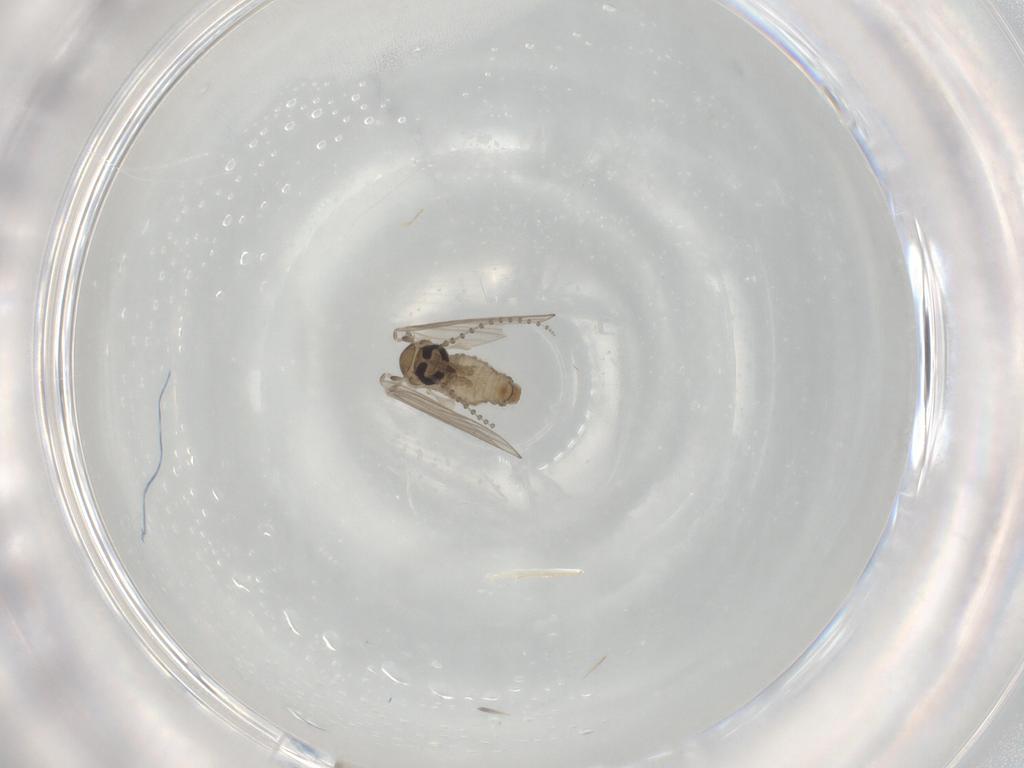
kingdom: Animalia
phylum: Arthropoda
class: Insecta
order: Diptera
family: Psychodidae
